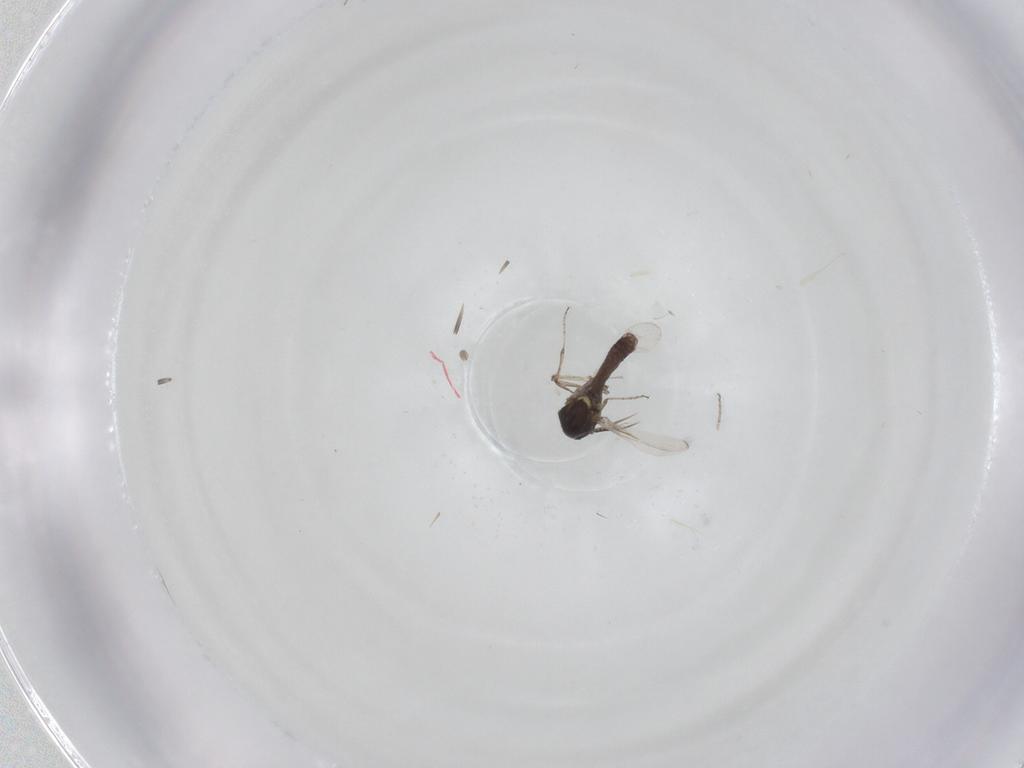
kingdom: Animalia
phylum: Arthropoda
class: Insecta
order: Diptera
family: Ceratopogonidae
